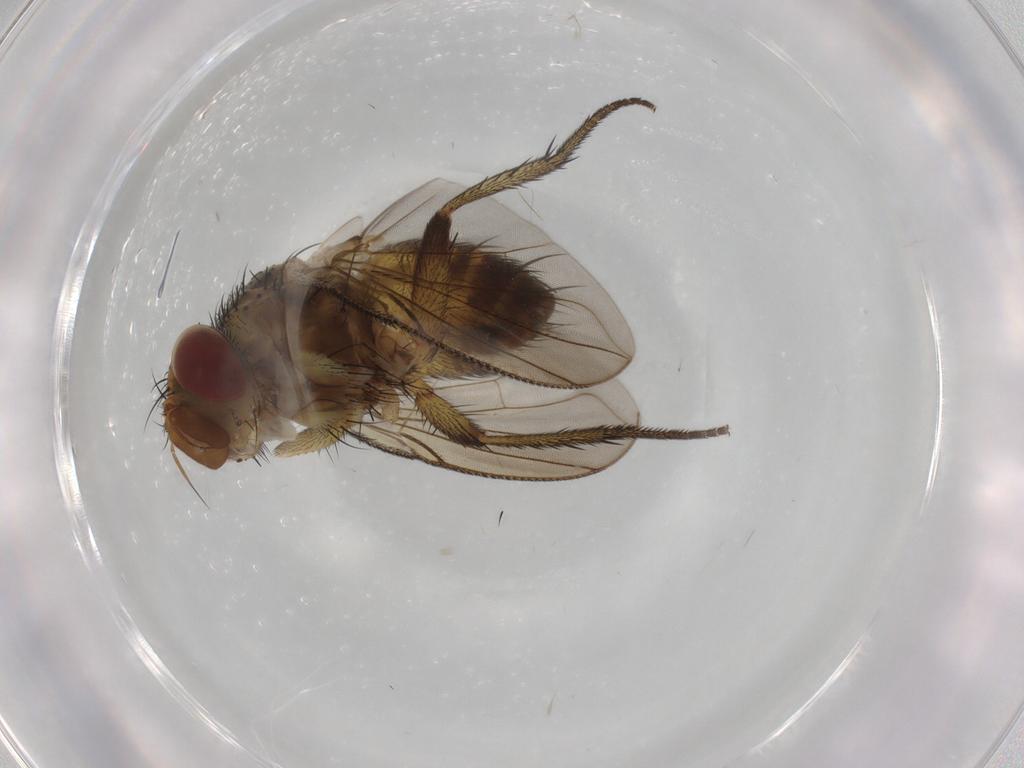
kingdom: Animalia
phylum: Arthropoda
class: Insecta
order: Diptera
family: Tachinidae
